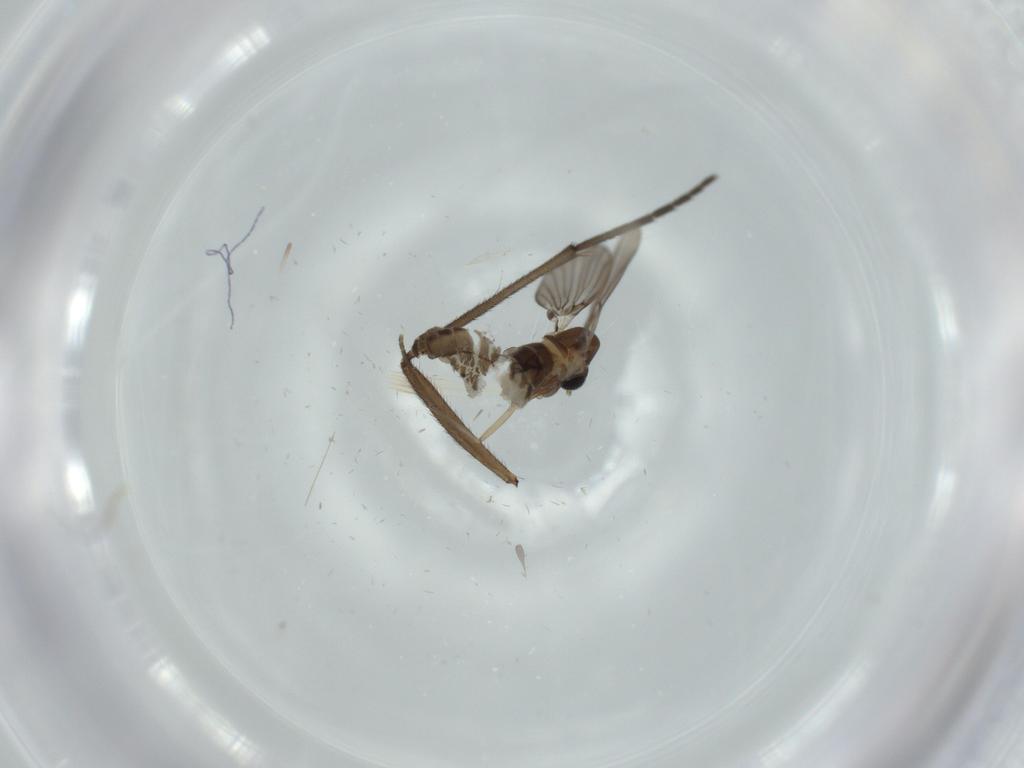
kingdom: Animalia
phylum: Arthropoda
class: Insecta
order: Diptera
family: Psychodidae
